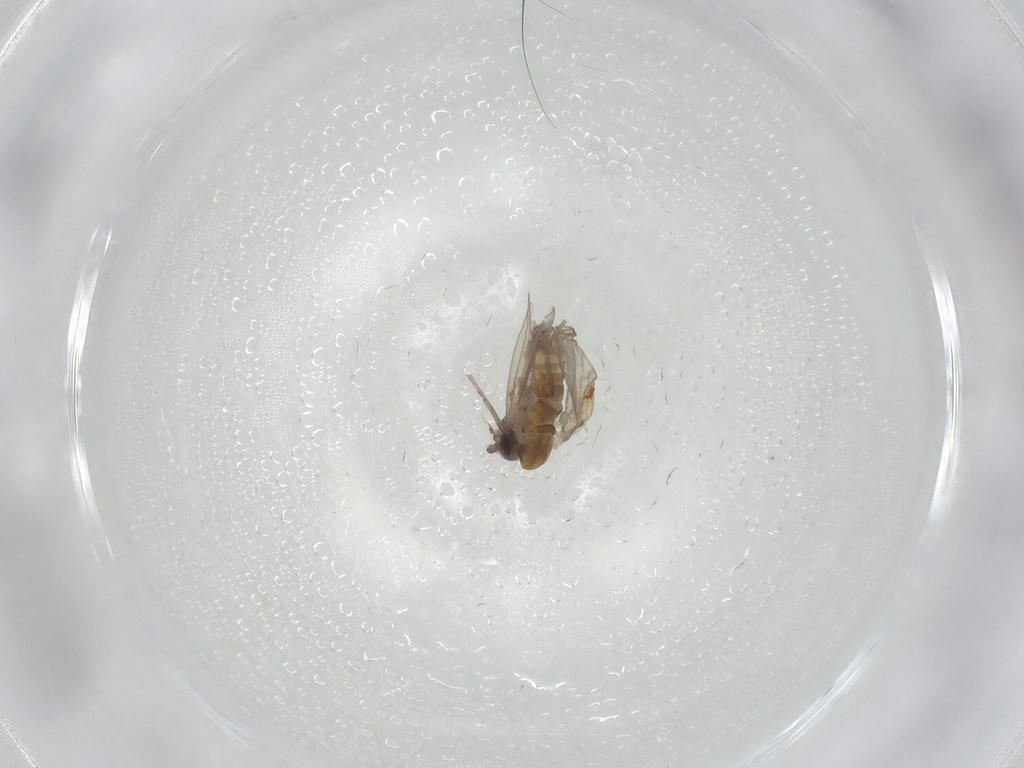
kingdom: Animalia
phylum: Arthropoda
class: Insecta
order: Diptera
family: Psychodidae
